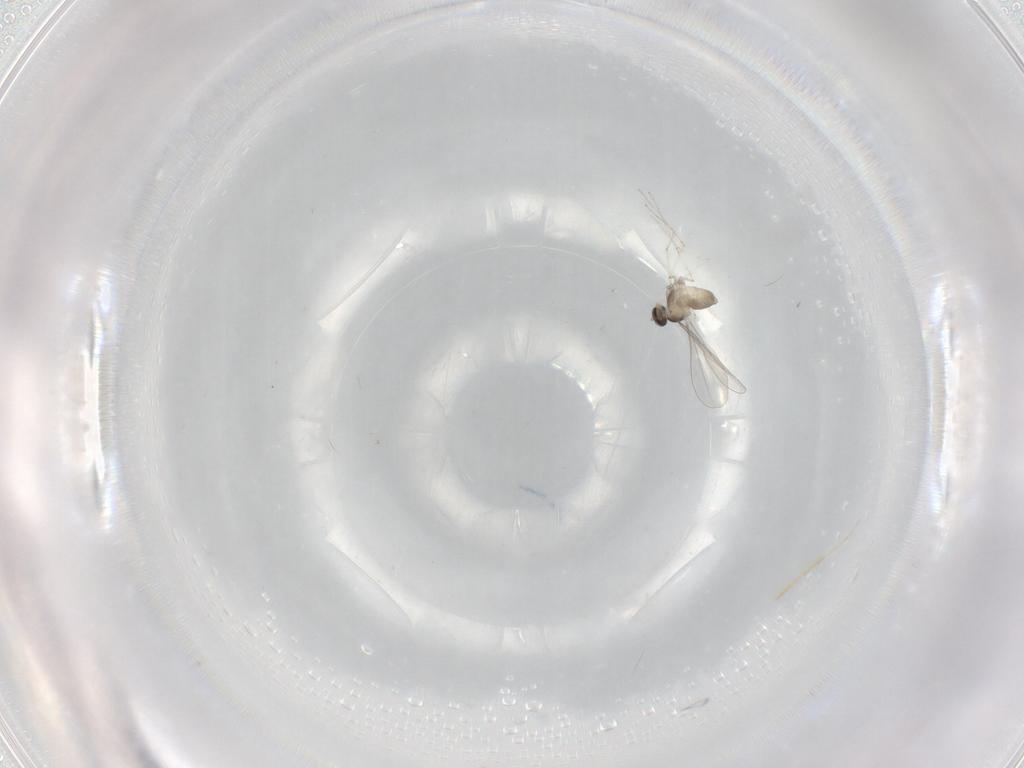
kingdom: Animalia
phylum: Arthropoda
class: Insecta
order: Diptera
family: Cecidomyiidae
